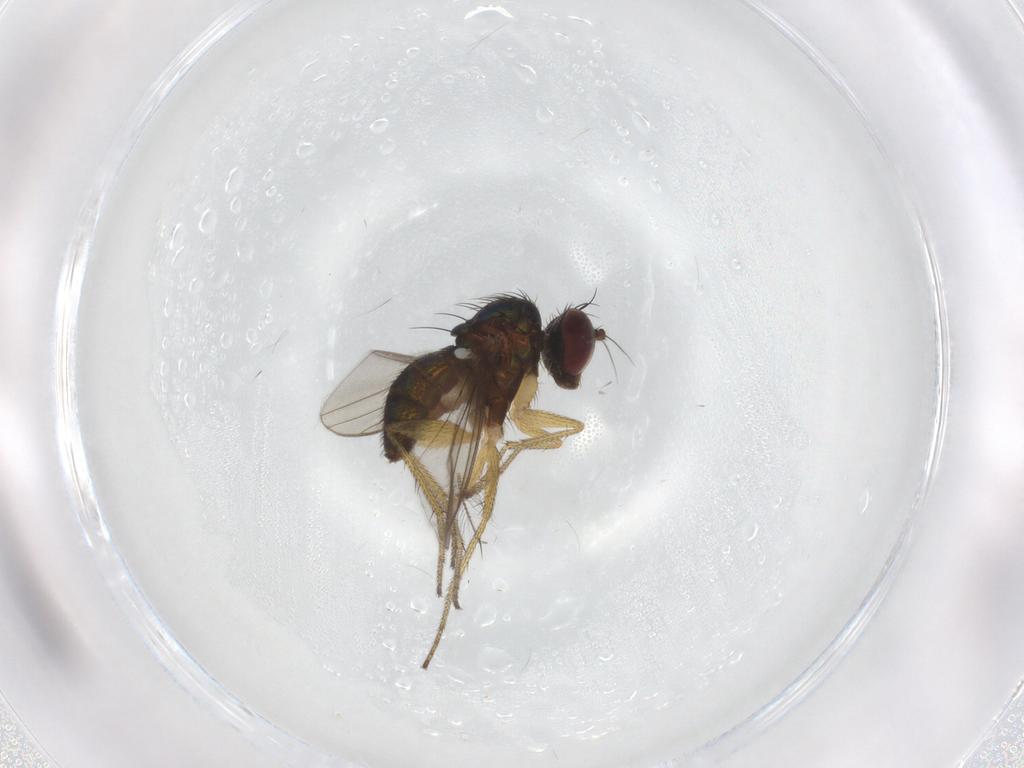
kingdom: Animalia
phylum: Arthropoda
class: Insecta
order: Diptera
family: Dolichopodidae
